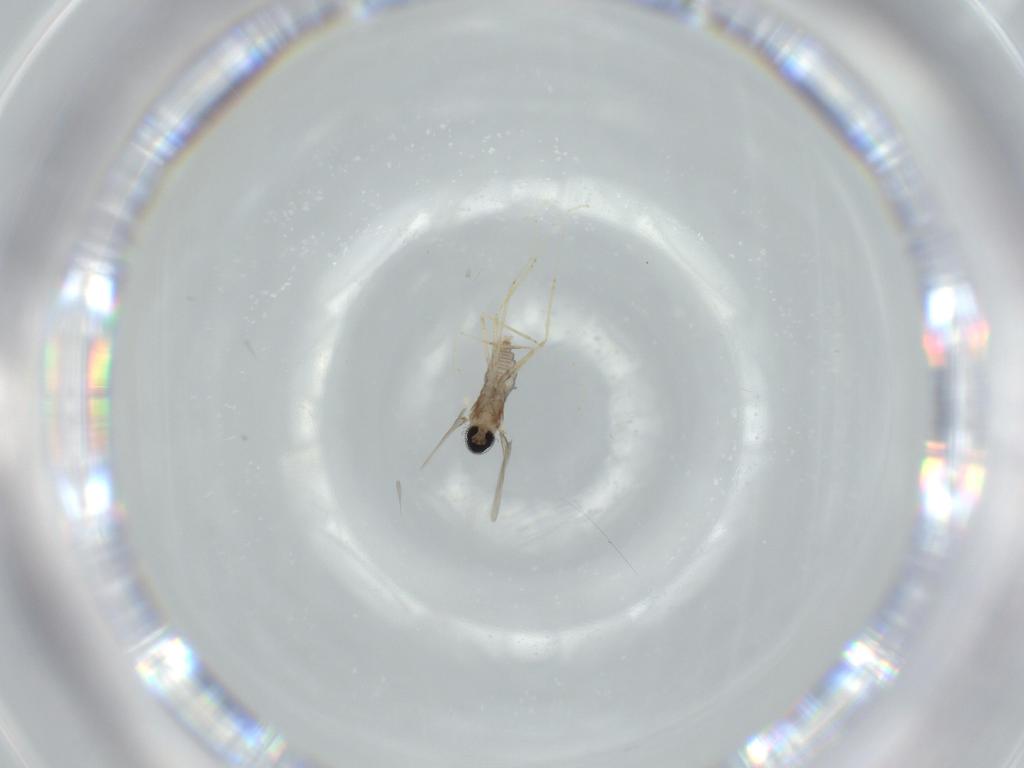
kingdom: Animalia
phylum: Arthropoda
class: Insecta
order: Diptera
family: Cecidomyiidae
